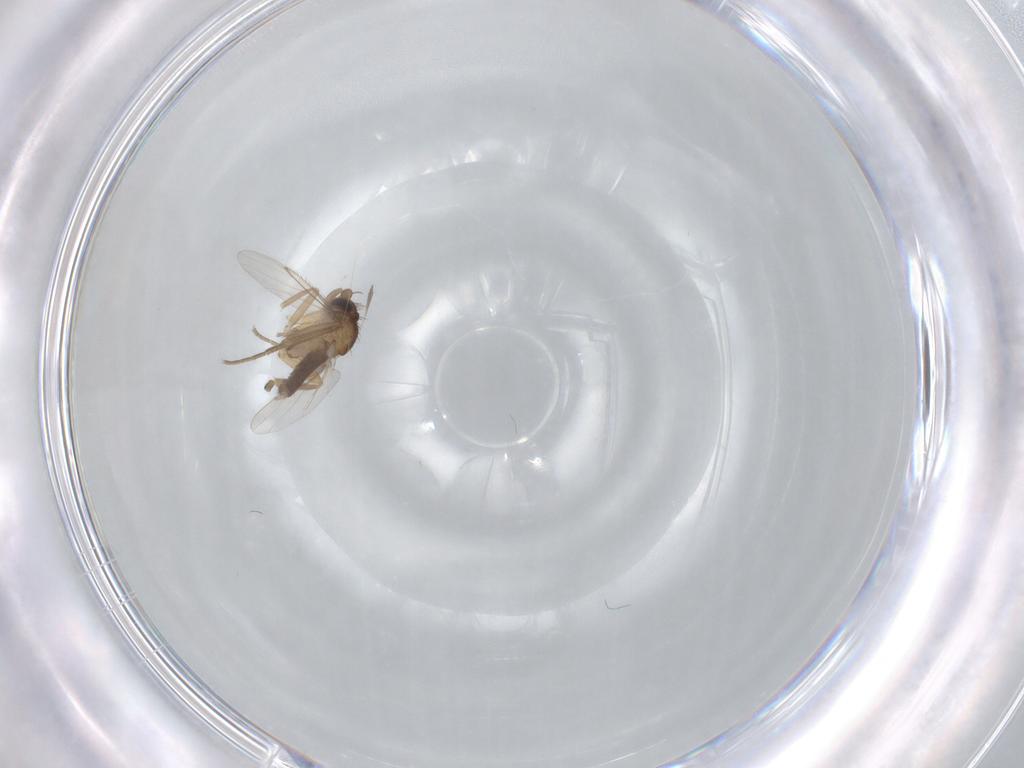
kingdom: Animalia
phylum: Arthropoda
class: Insecta
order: Diptera
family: Phoridae
